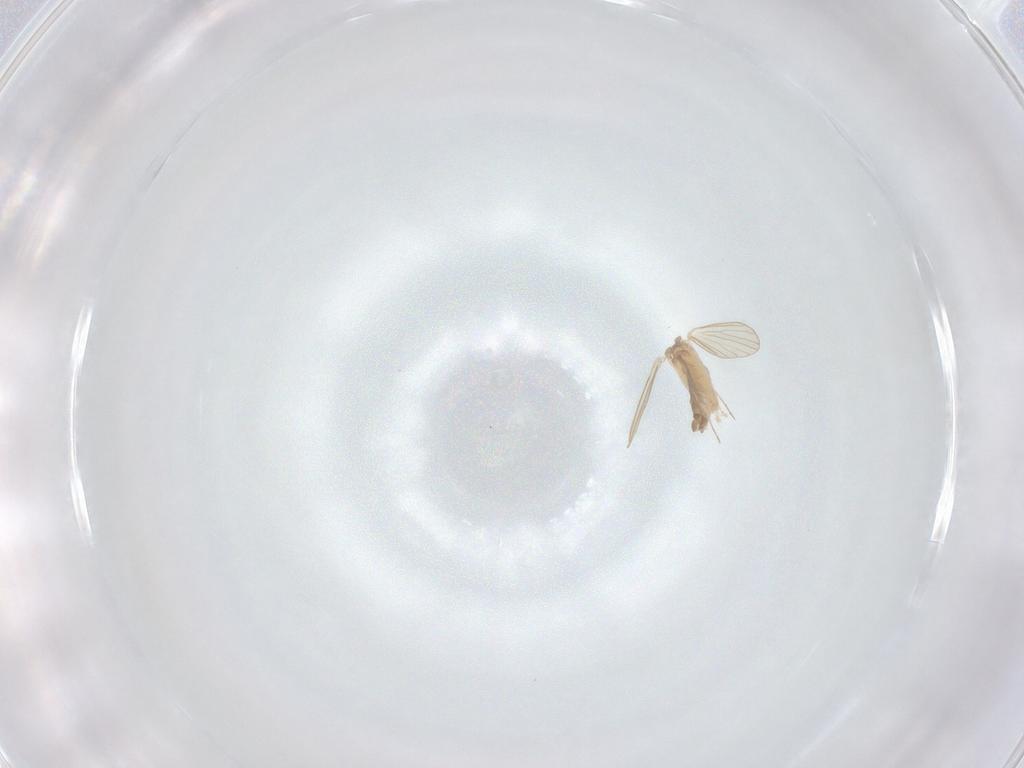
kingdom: Animalia
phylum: Arthropoda
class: Insecta
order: Diptera
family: Psychodidae
